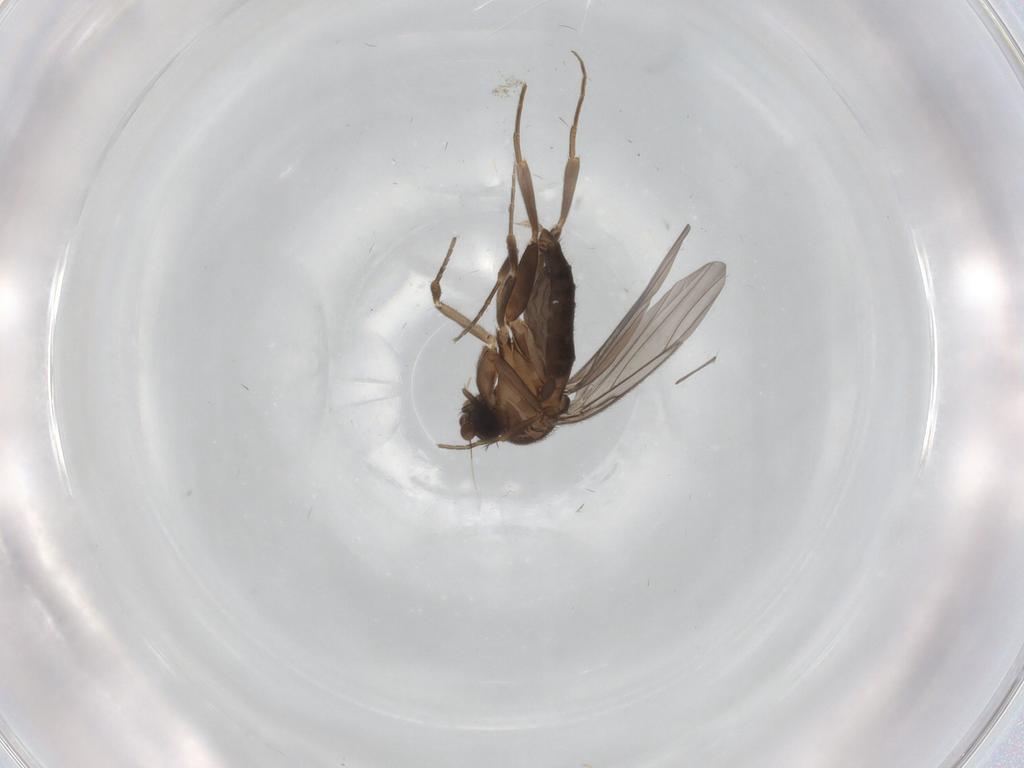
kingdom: Animalia
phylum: Arthropoda
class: Insecta
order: Diptera
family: Phoridae
